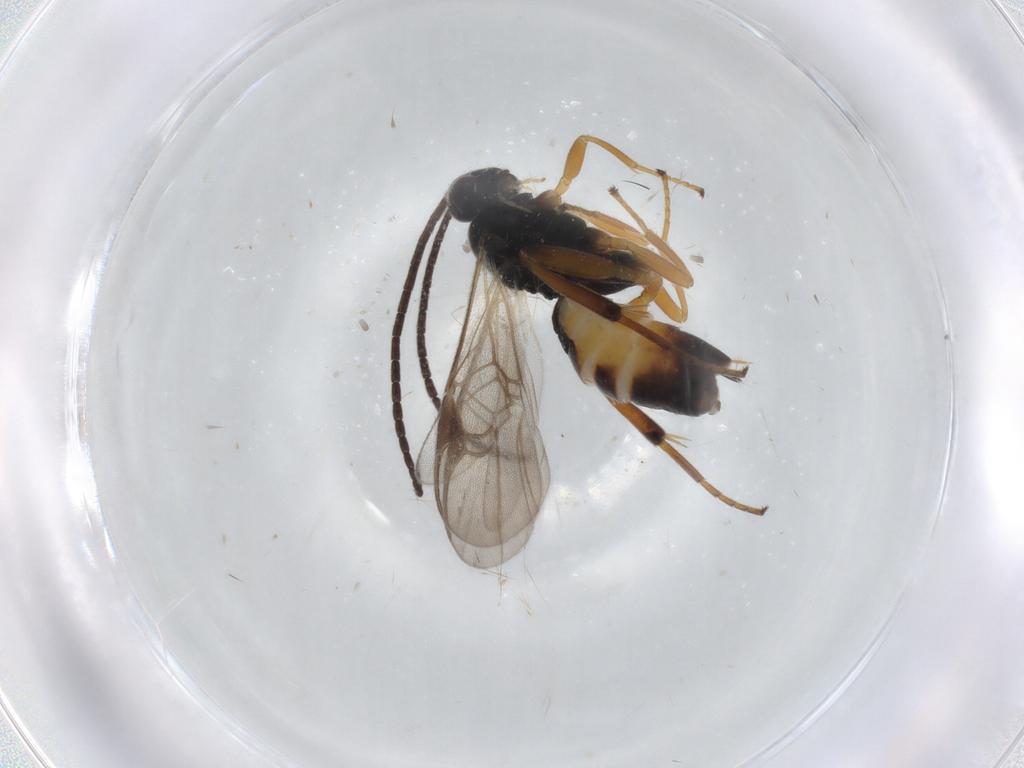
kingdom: Animalia
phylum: Arthropoda
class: Insecta
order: Hymenoptera
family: Braconidae
